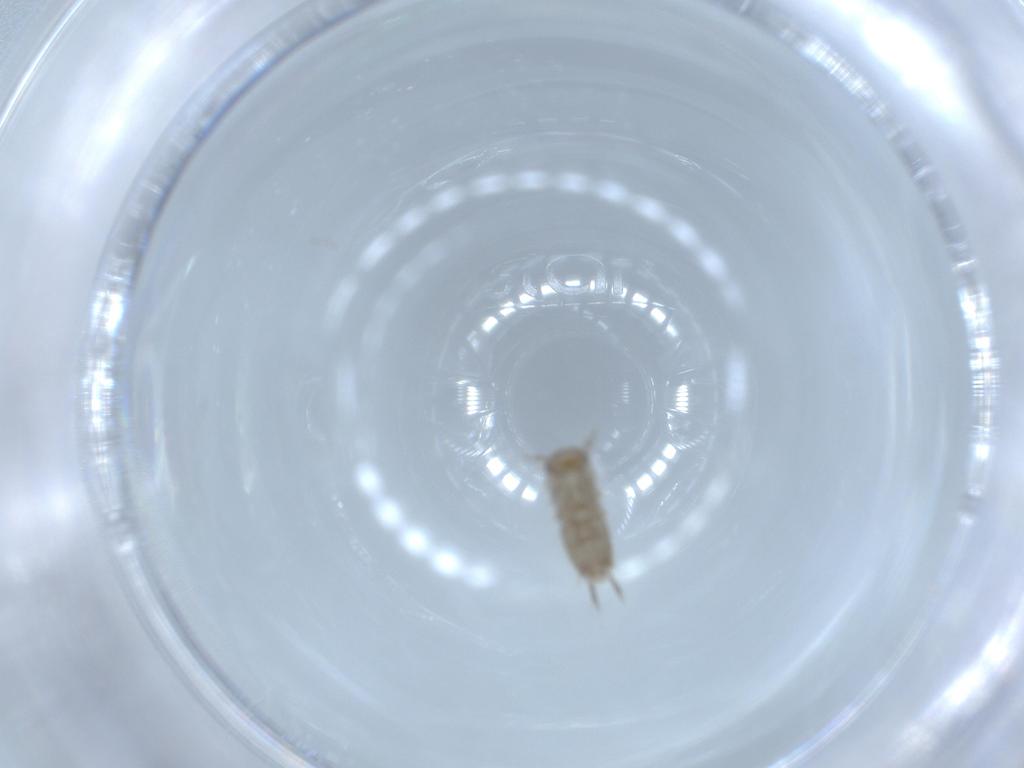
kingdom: Animalia
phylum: Arthropoda
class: Insecta
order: Coleoptera
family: Staphylinidae
